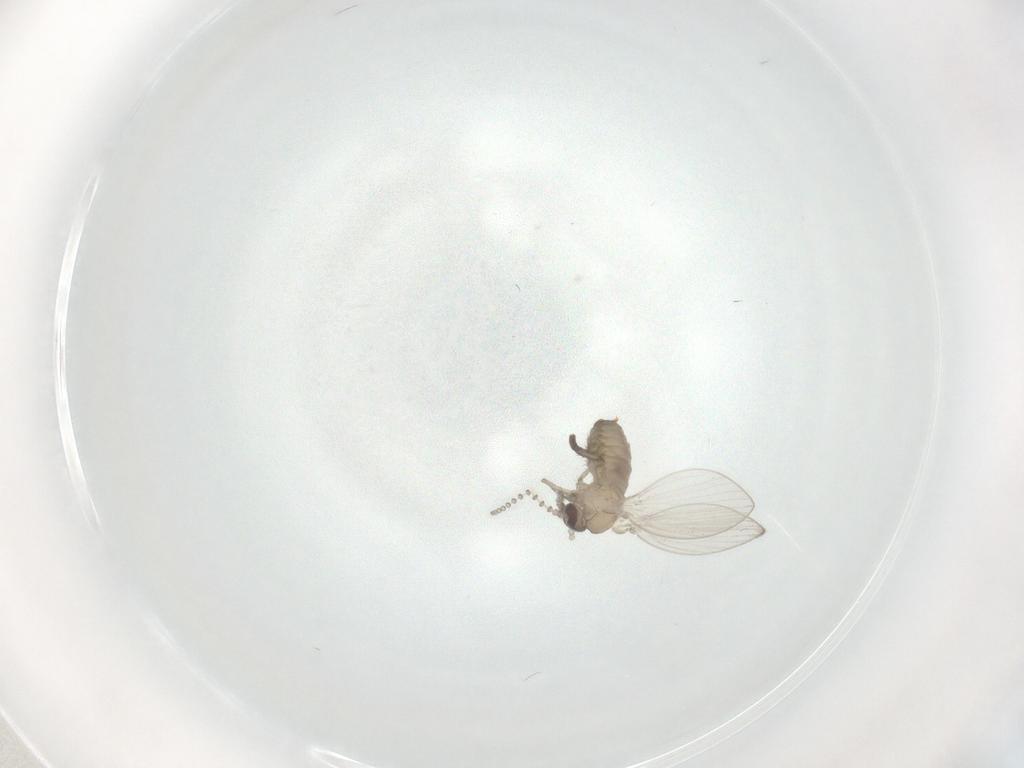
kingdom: Animalia
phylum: Arthropoda
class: Insecta
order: Diptera
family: Psychodidae
